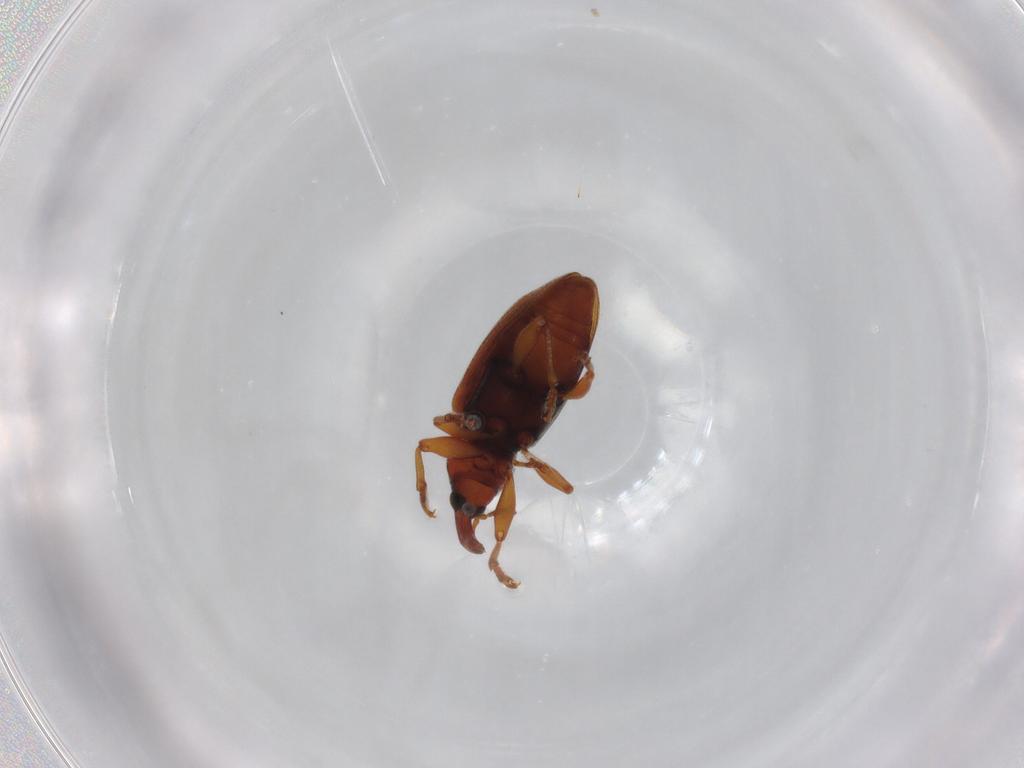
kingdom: Animalia
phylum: Arthropoda
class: Insecta
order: Coleoptera
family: Curculionidae
